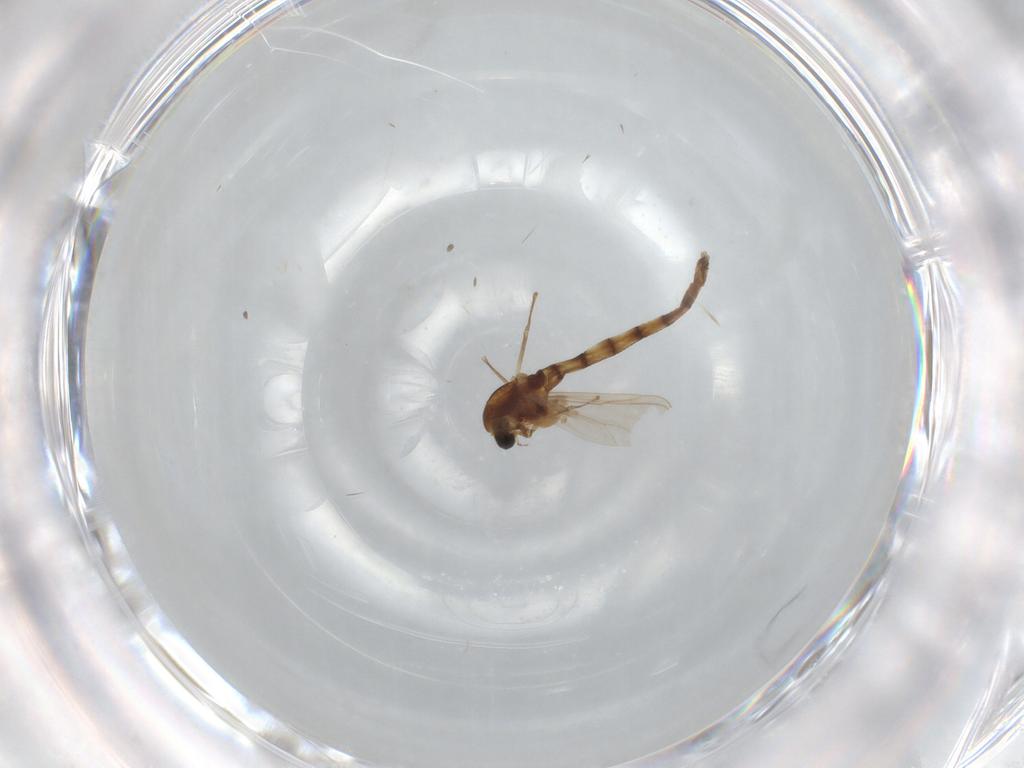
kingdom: Animalia
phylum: Arthropoda
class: Insecta
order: Diptera
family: Chironomidae
